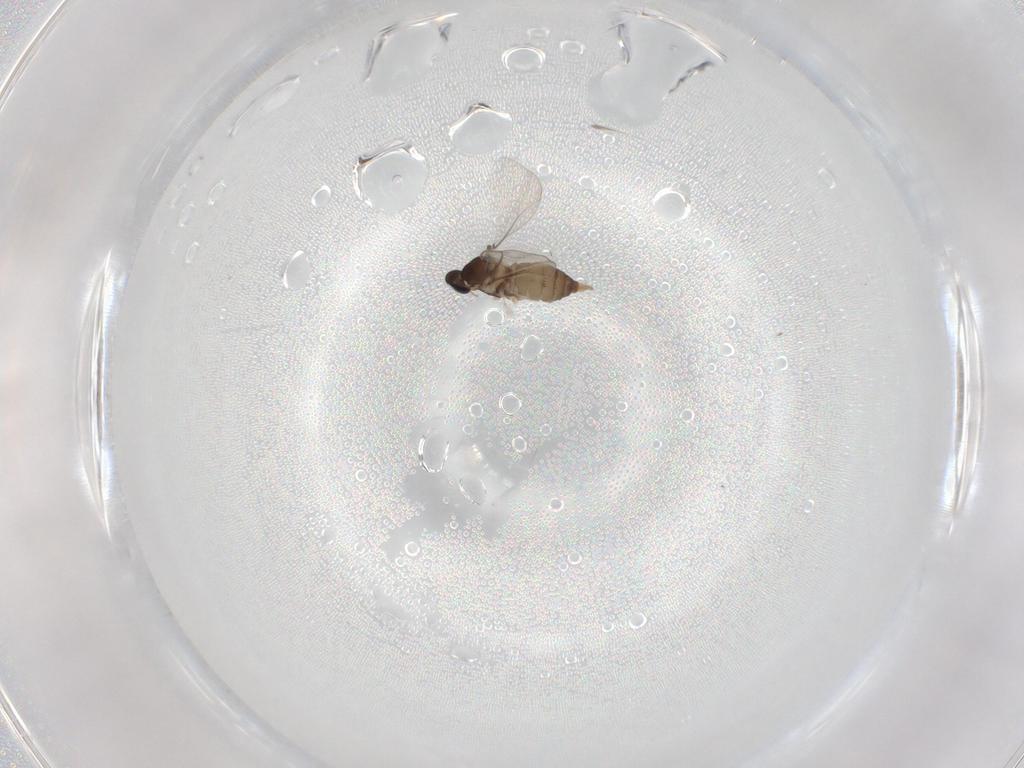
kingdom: Animalia
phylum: Arthropoda
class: Insecta
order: Diptera
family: Cecidomyiidae
